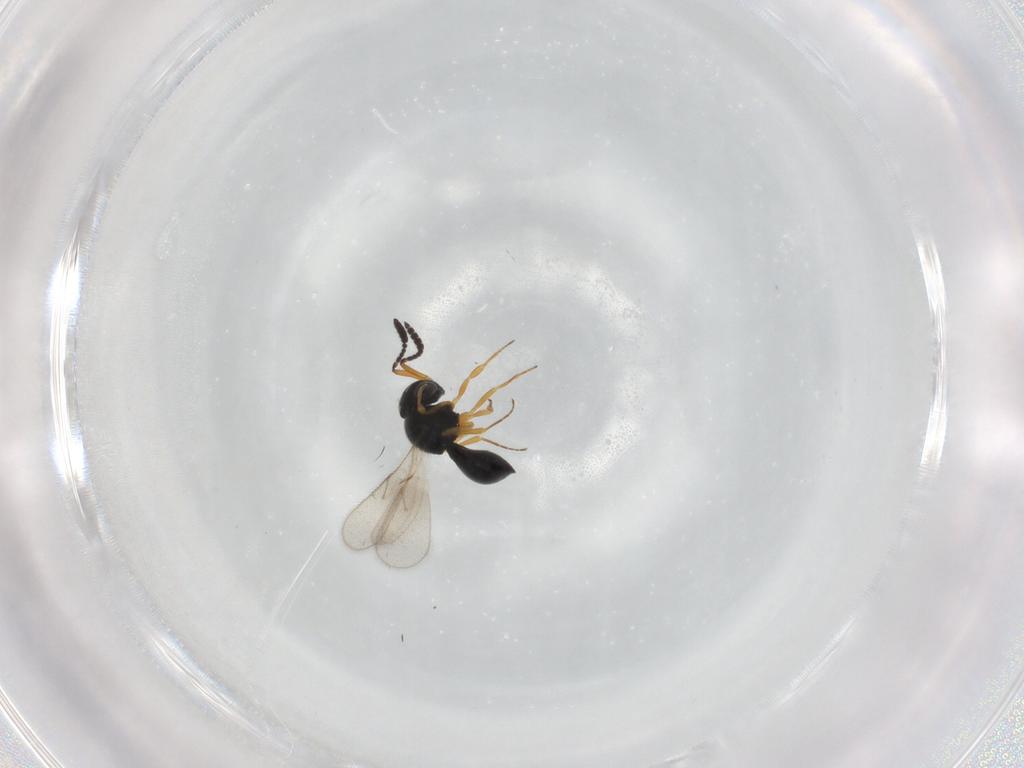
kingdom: Animalia
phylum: Arthropoda
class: Insecta
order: Hymenoptera
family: Scelionidae
